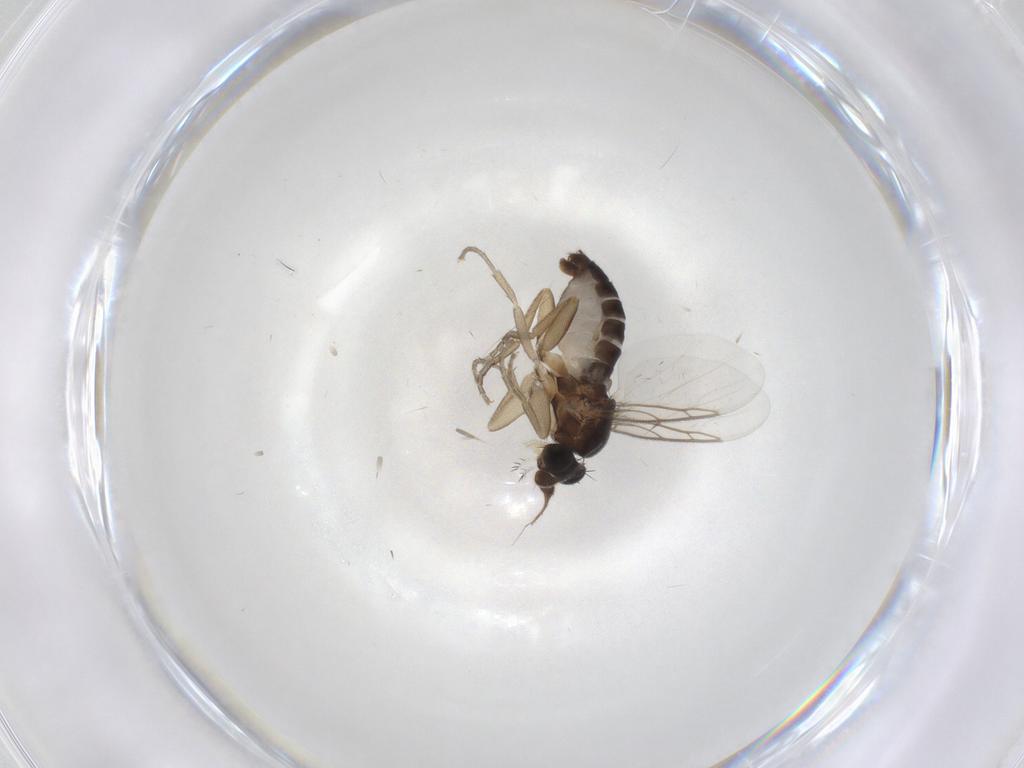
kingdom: Animalia
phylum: Arthropoda
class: Insecta
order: Diptera
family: Phoridae
